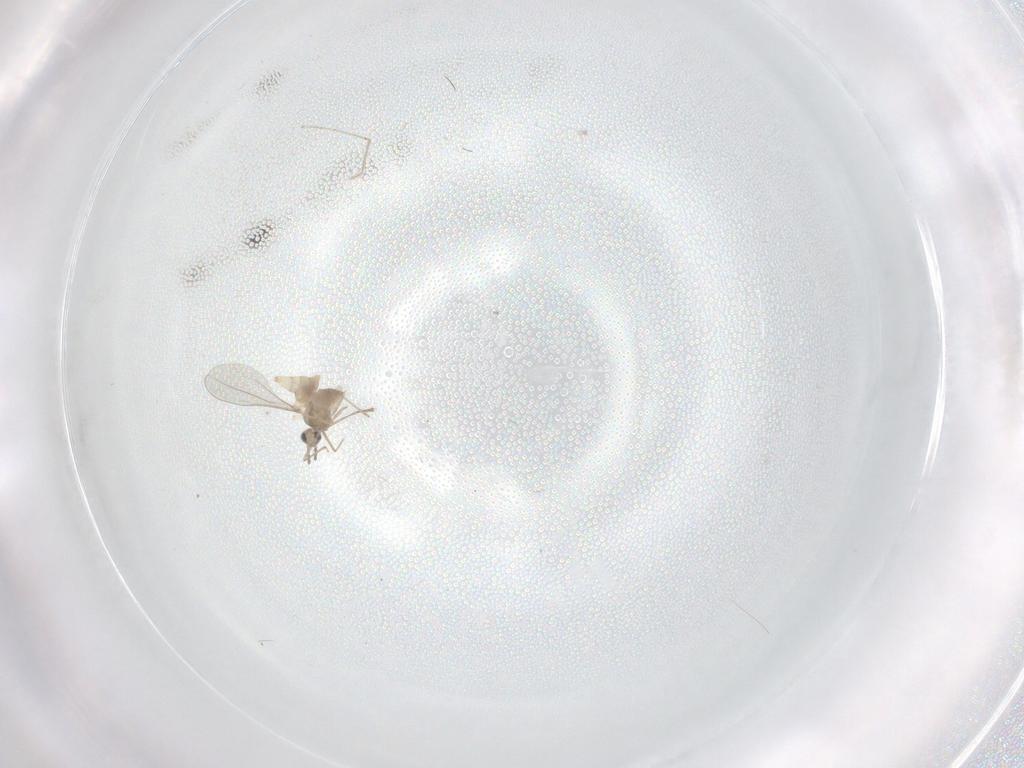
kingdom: Animalia
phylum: Arthropoda
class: Insecta
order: Diptera
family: Cecidomyiidae
